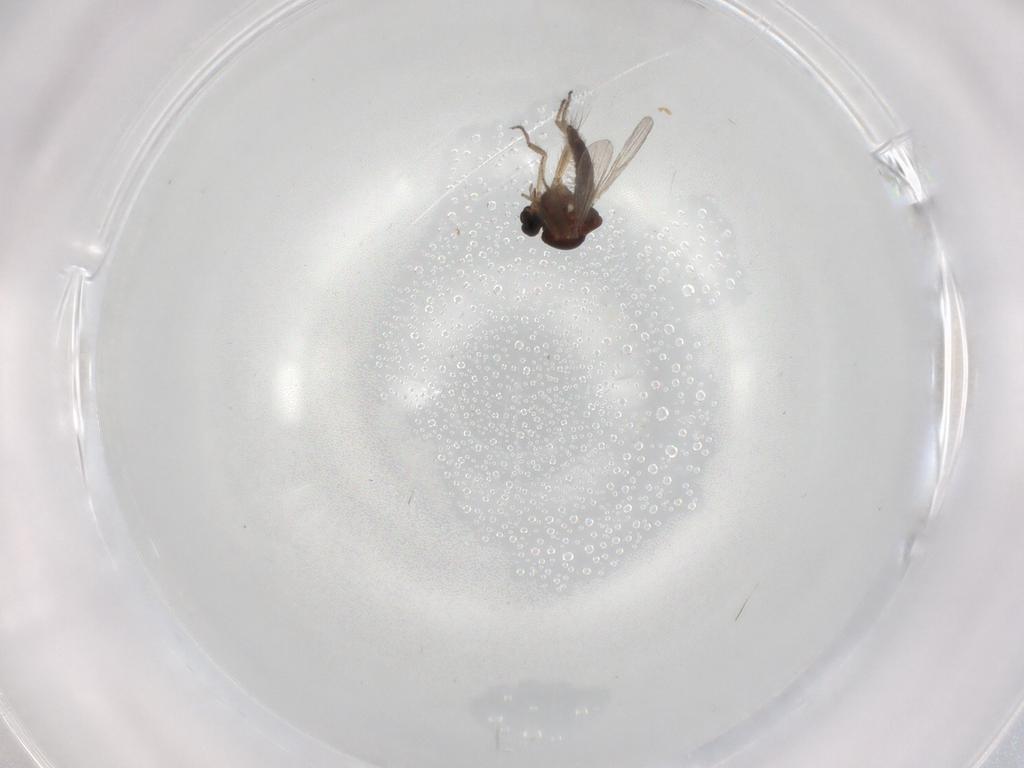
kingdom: Animalia
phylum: Arthropoda
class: Insecta
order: Diptera
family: Ceratopogonidae
